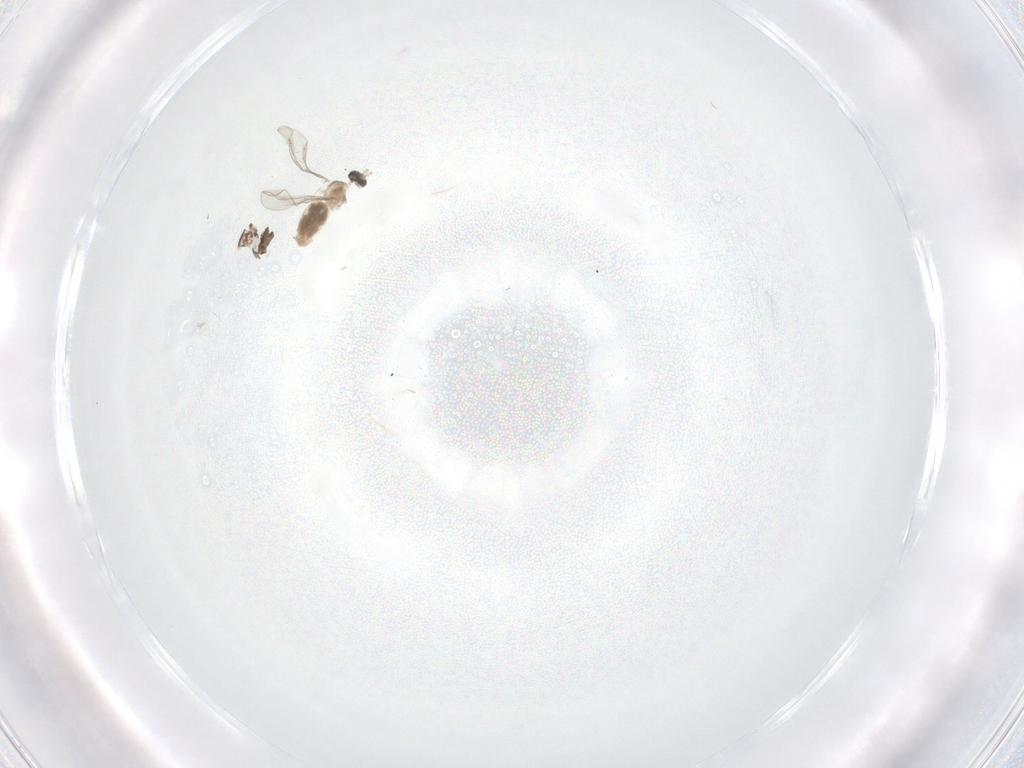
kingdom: Animalia
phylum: Arthropoda
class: Insecta
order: Diptera
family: Phoridae
